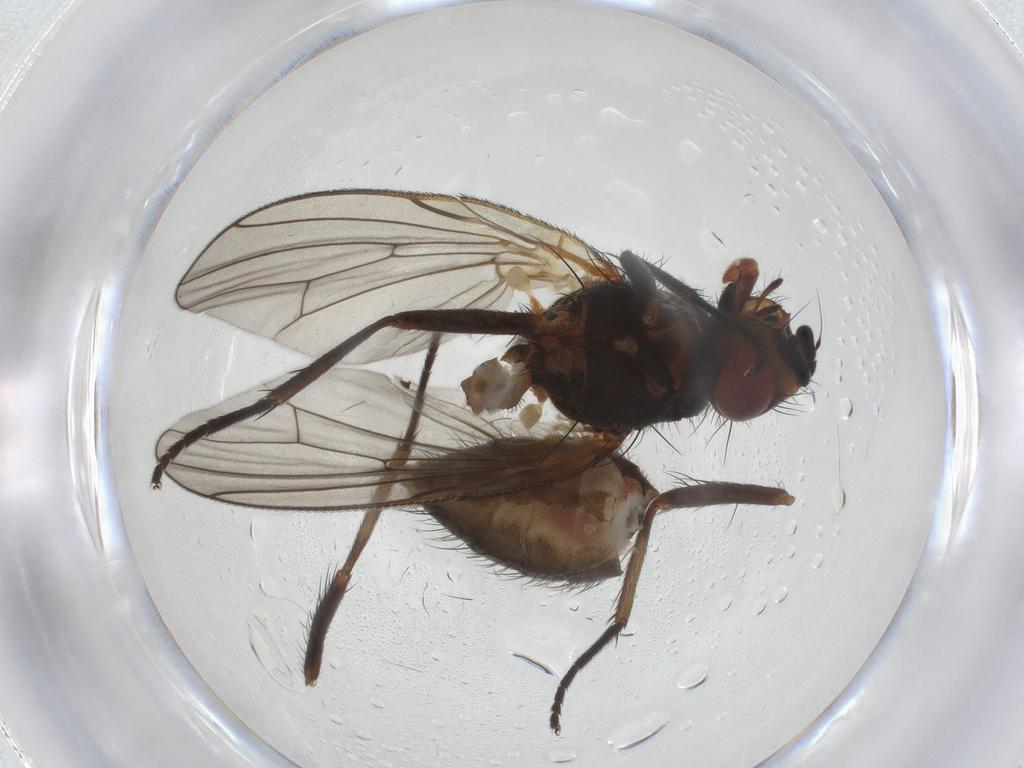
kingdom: Animalia
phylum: Arthropoda
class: Insecta
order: Diptera
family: Anthomyiidae
